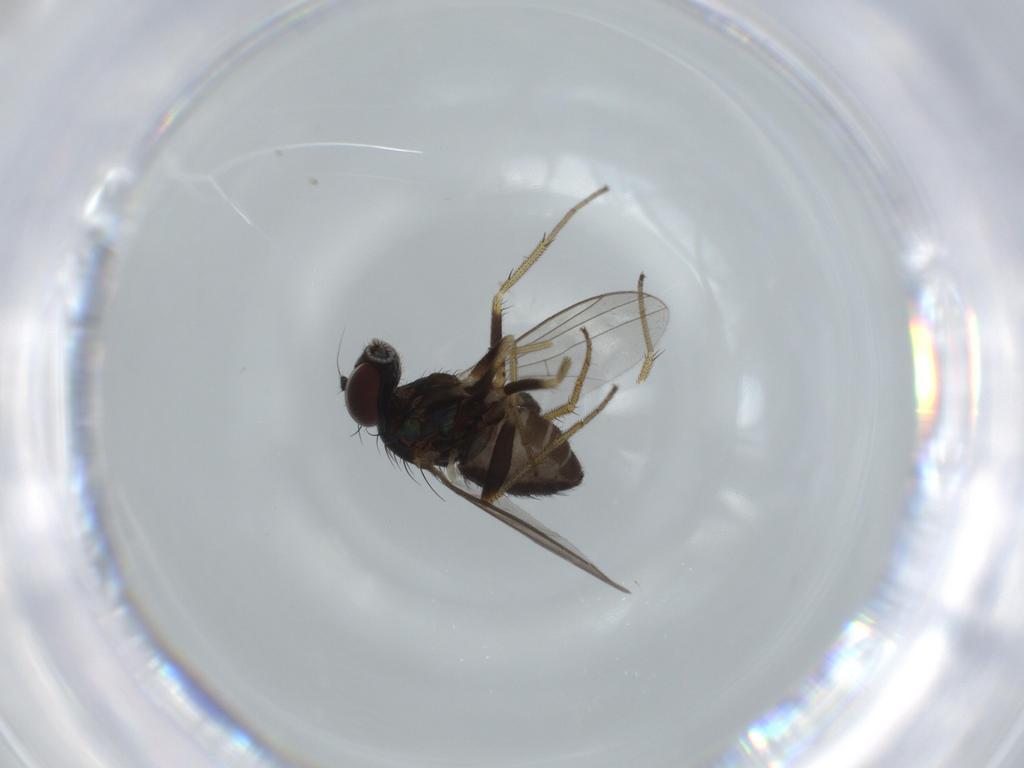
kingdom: Animalia
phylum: Arthropoda
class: Insecta
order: Diptera
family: Dolichopodidae
